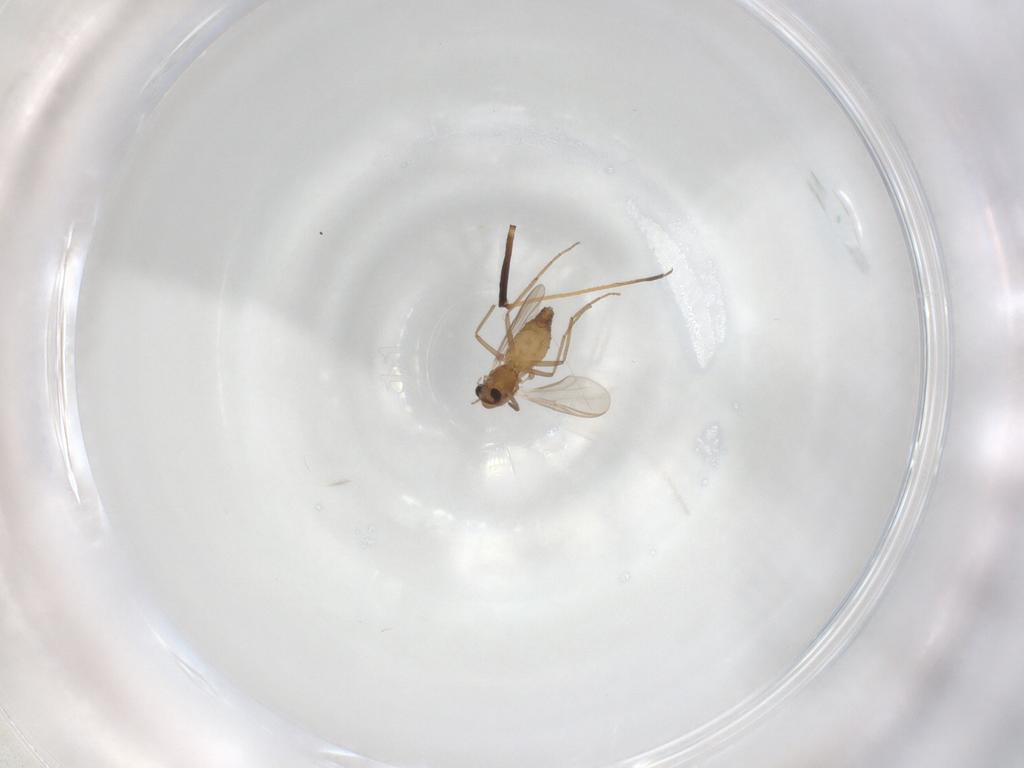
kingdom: Animalia
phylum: Arthropoda
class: Insecta
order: Diptera
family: Chironomidae
